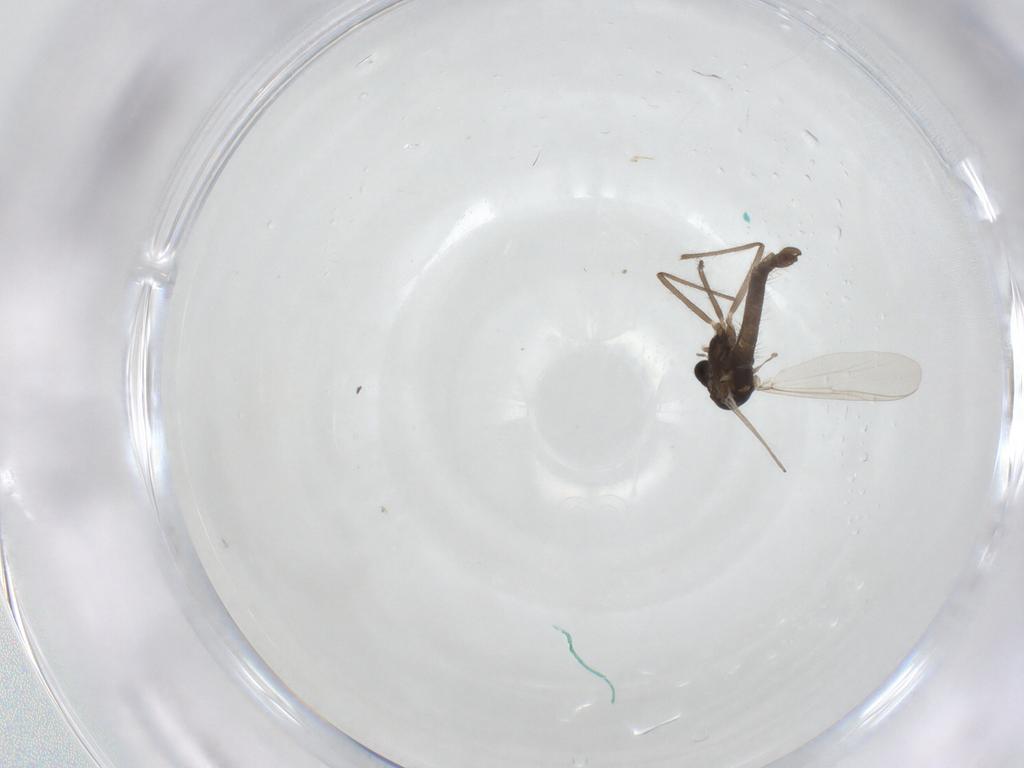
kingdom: Animalia
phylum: Arthropoda
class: Insecta
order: Diptera
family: Chironomidae
